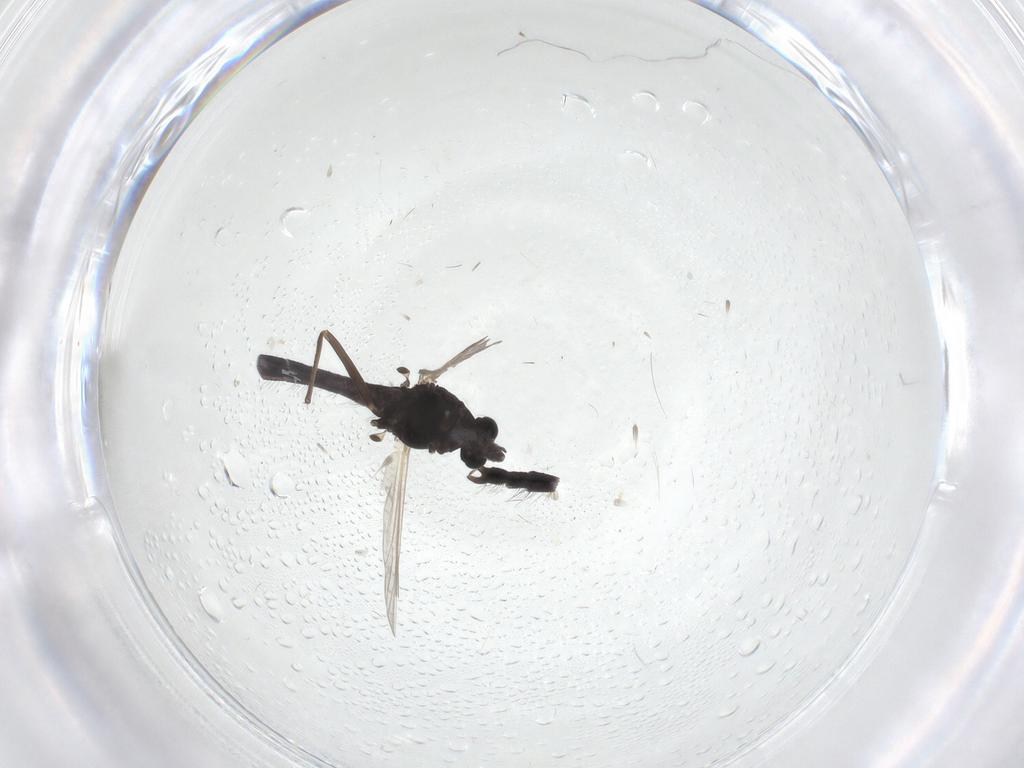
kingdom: Animalia
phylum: Arthropoda
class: Insecta
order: Diptera
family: Chironomidae
